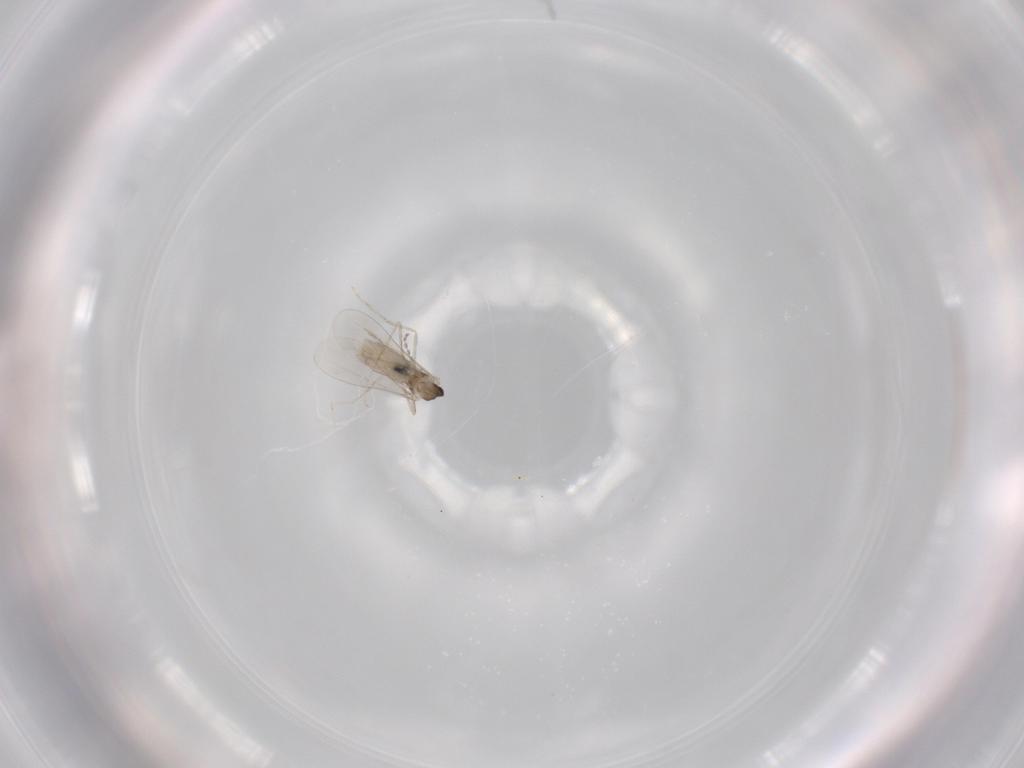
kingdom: Animalia
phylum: Arthropoda
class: Insecta
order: Diptera
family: Cecidomyiidae
